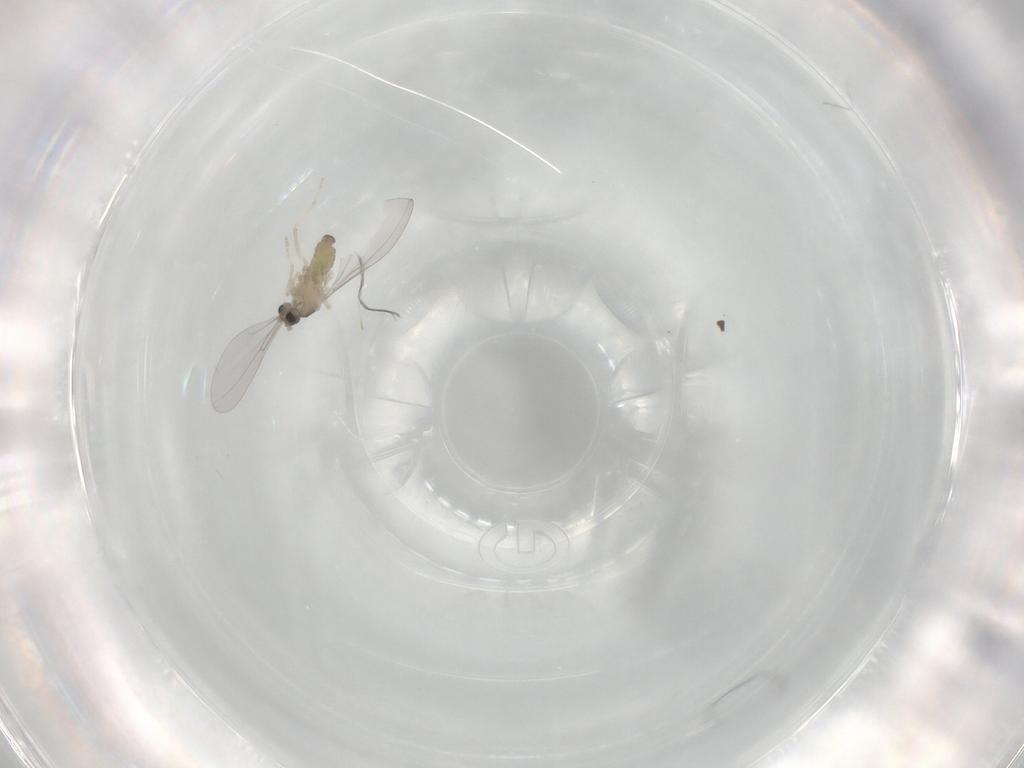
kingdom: Animalia
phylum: Arthropoda
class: Insecta
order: Diptera
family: Cecidomyiidae
